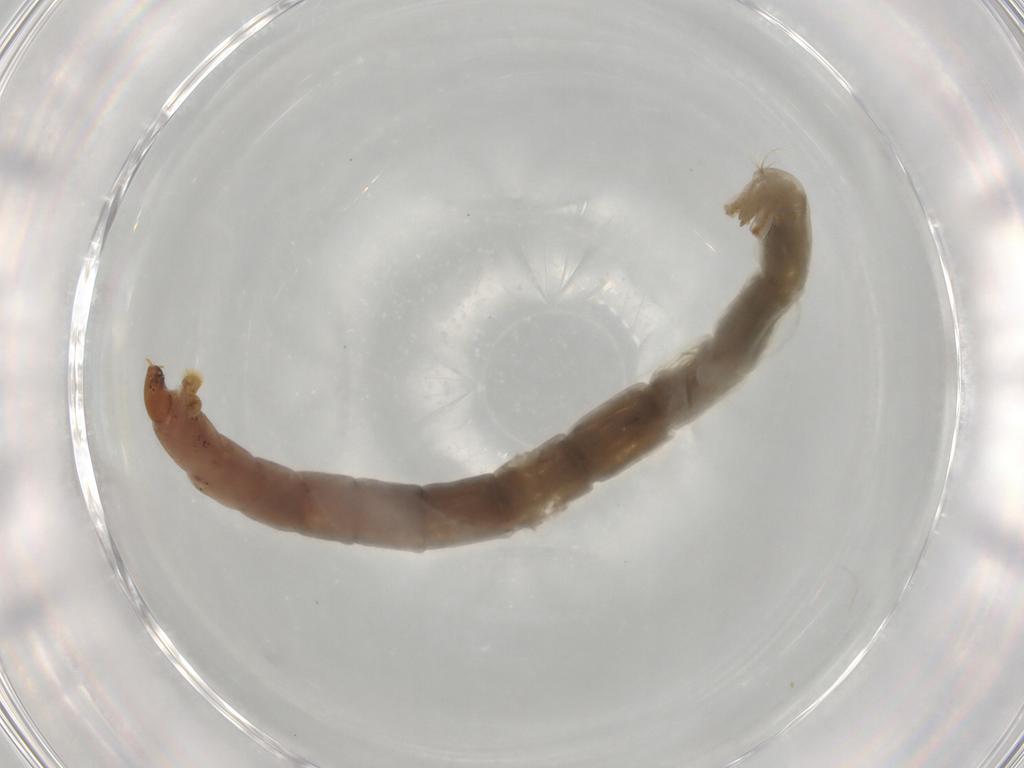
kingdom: Animalia
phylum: Arthropoda
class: Insecta
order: Diptera
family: Chironomidae
